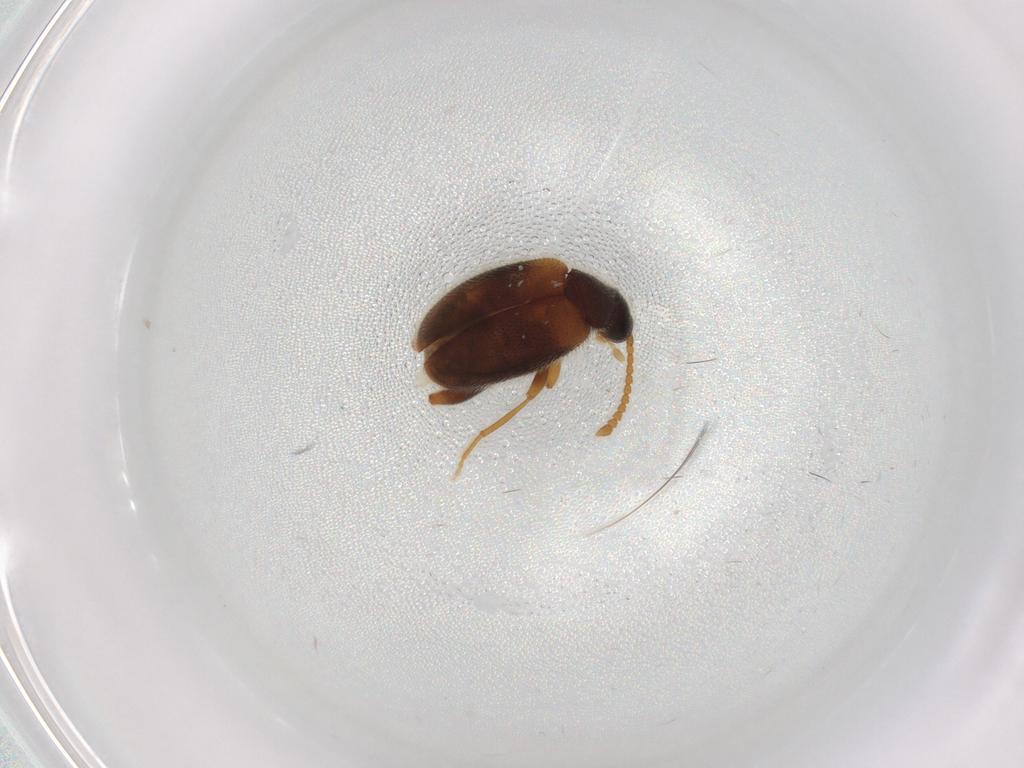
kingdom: Animalia
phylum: Arthropoda
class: Insecta
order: Coleoptera
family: Aderidae
